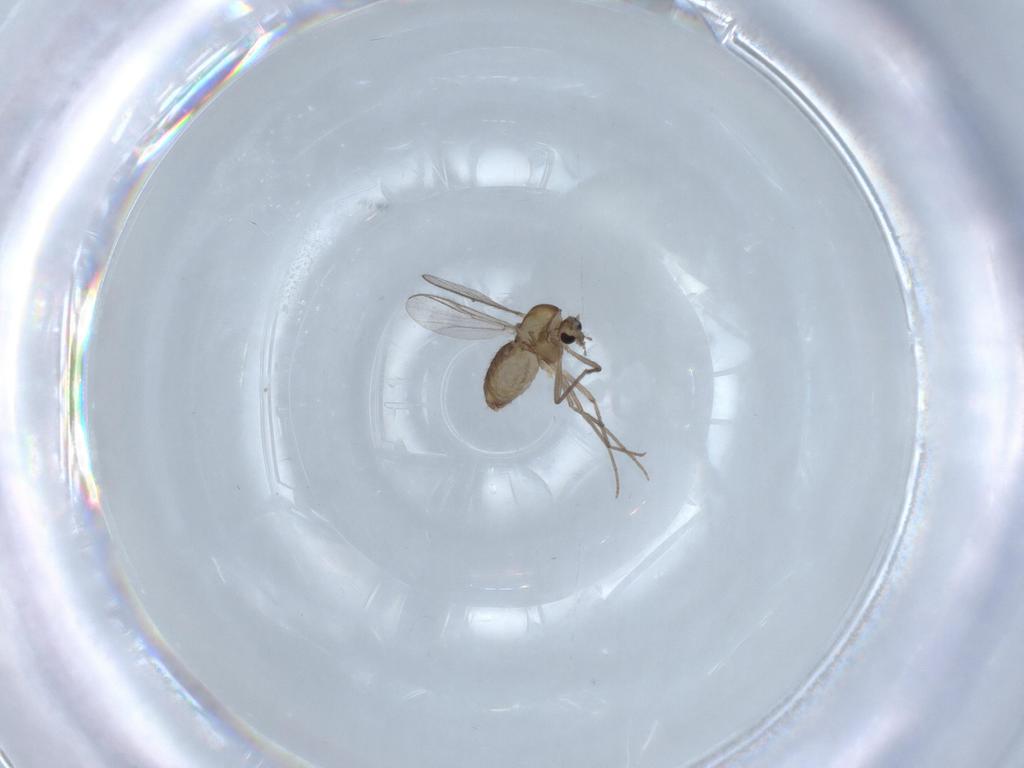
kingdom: Animalia
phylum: Arthropoda
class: Insecta
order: Diptera
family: Chironomidae
